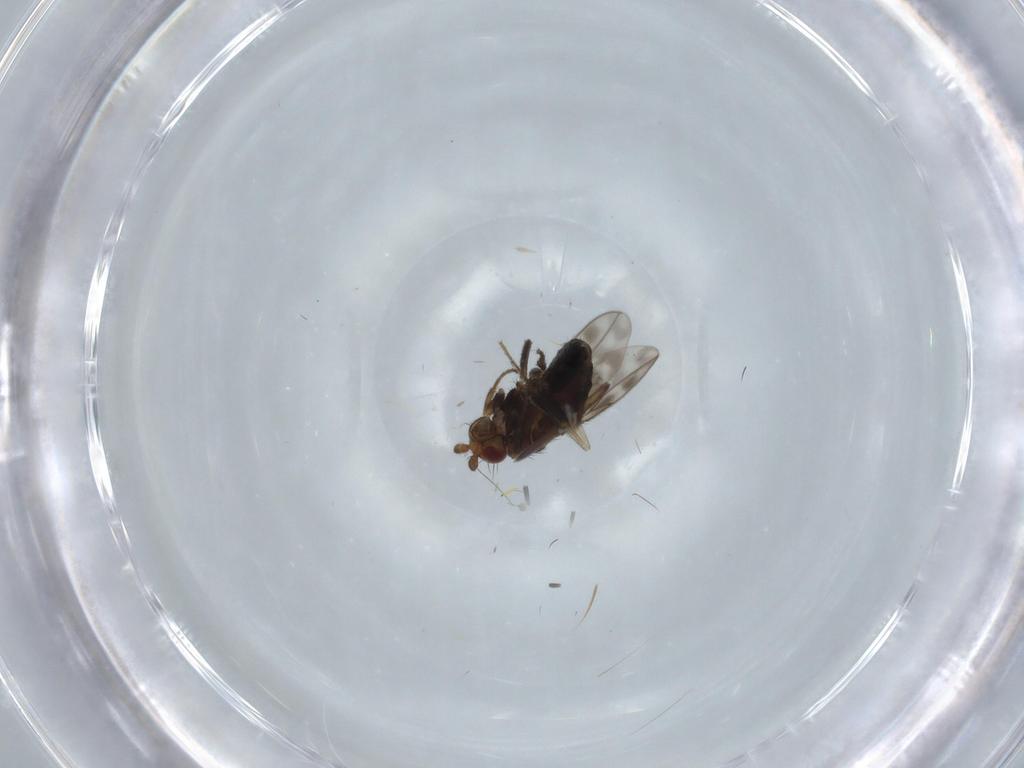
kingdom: Animalia
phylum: Arthropoda
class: Insecta
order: Diptera
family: Sphaeroceridae
